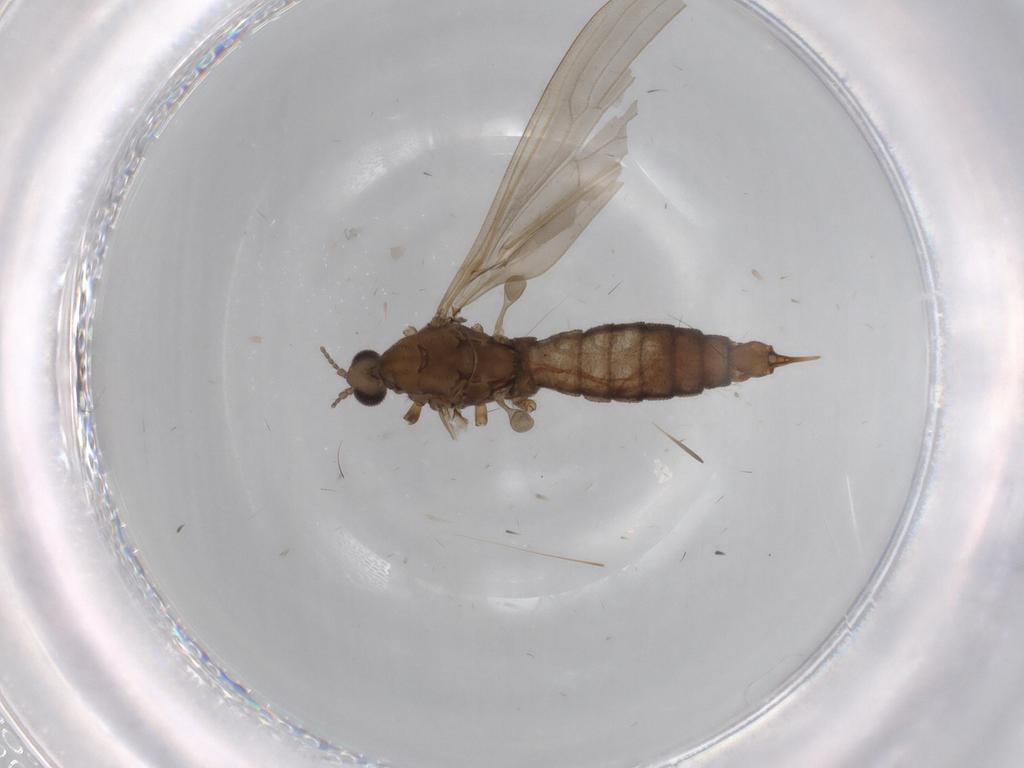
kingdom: Animalia
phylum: Arthropoda
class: Insecta
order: Diptera
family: Limoniidae
